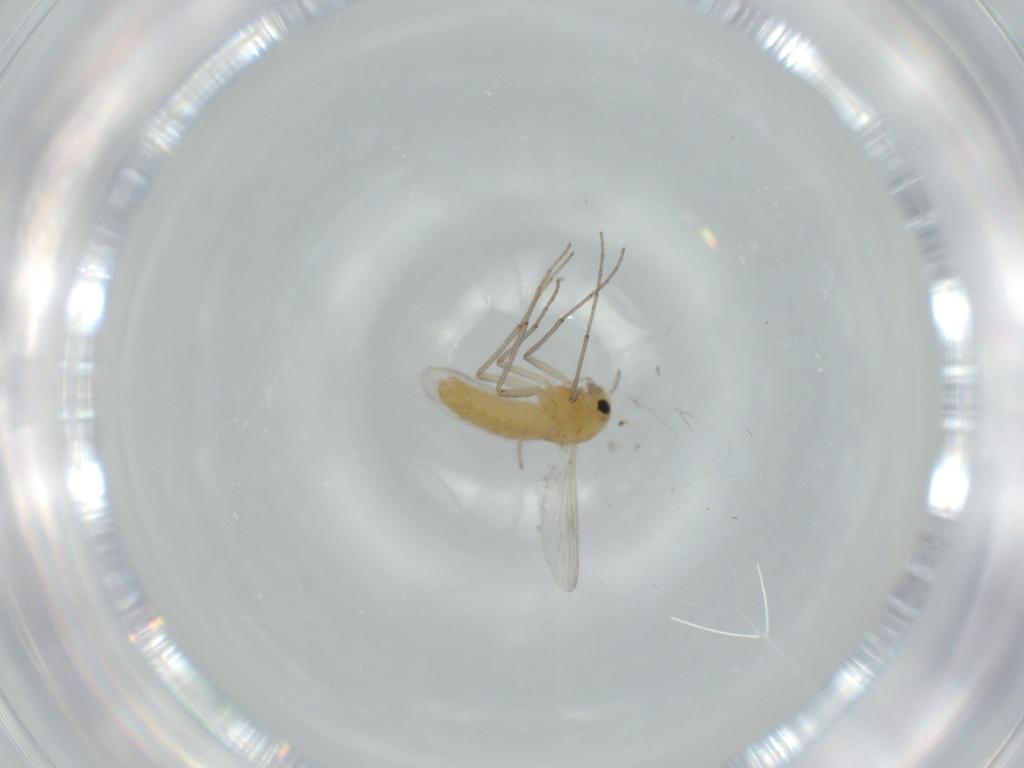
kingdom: Animalia
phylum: Arthropoda
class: Insecta
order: Diptera
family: Chironomidae
